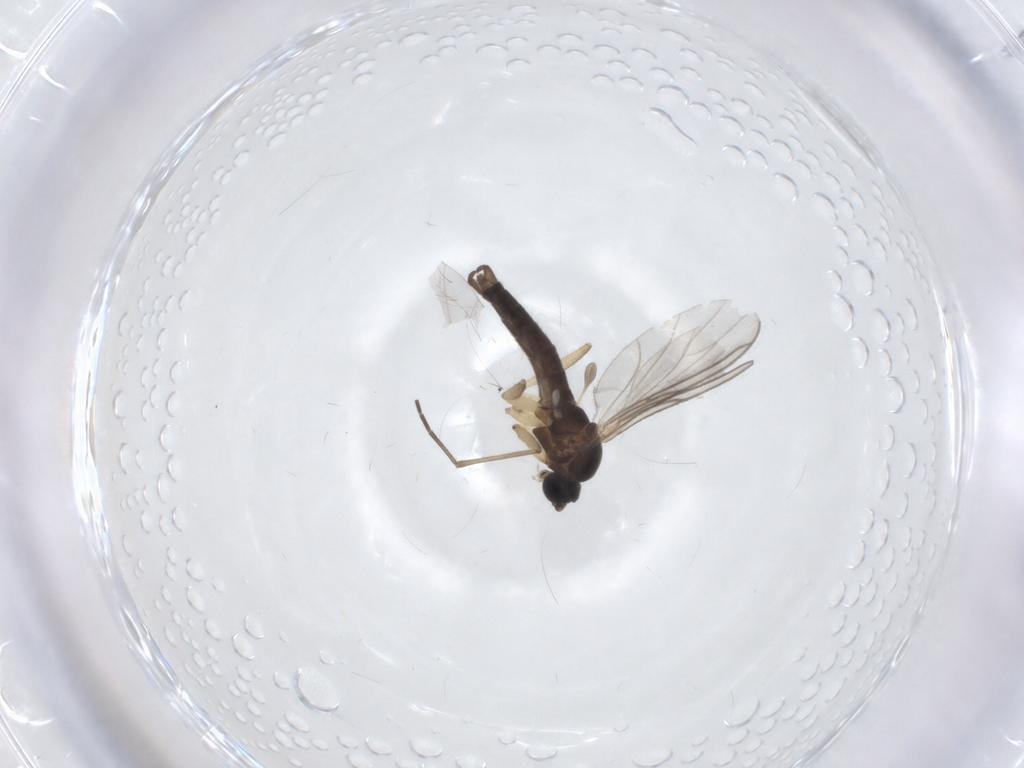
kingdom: Animalia
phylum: Arthropoda
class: Insecta
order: Diptera
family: Sciaridae
